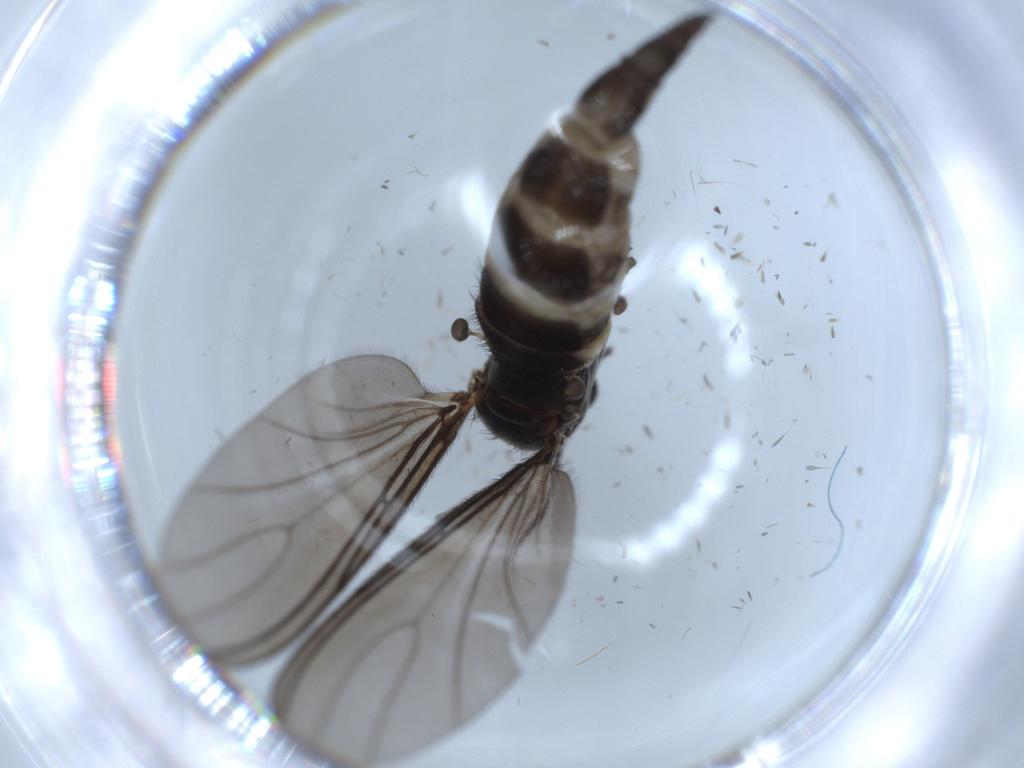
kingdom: Animalia
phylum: Arthropoda
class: Insecta
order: Diptera
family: Sciaridae
